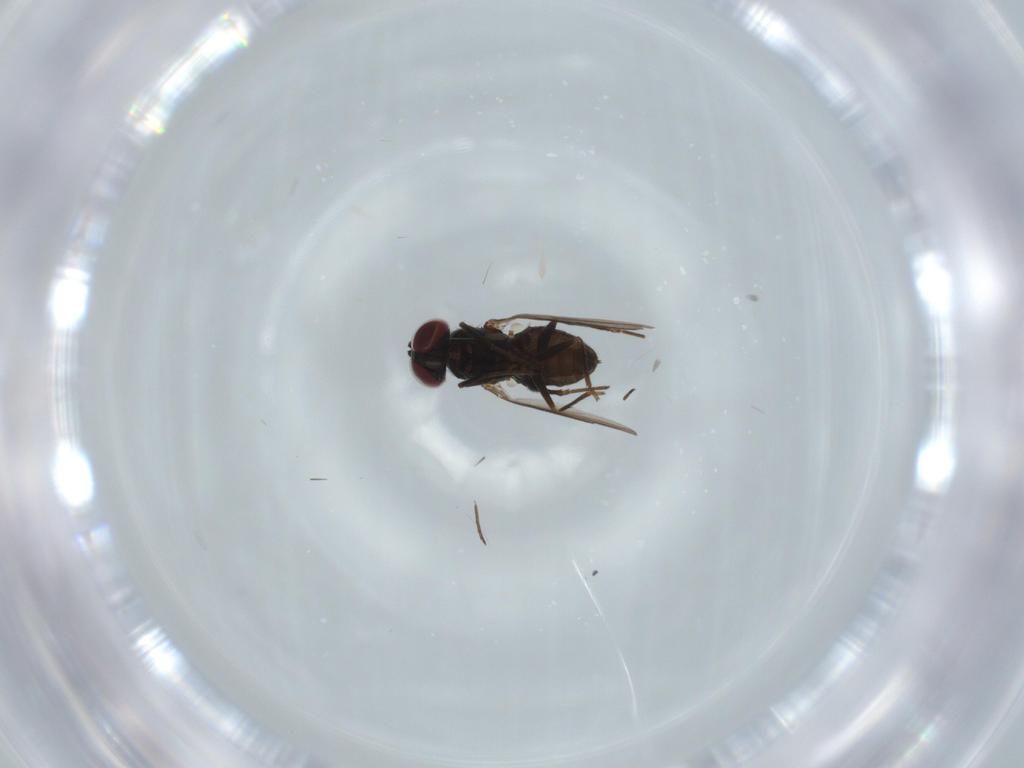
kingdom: Animalia
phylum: Arthropoda
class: Insecta
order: Diptera
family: Dolichopodidae
